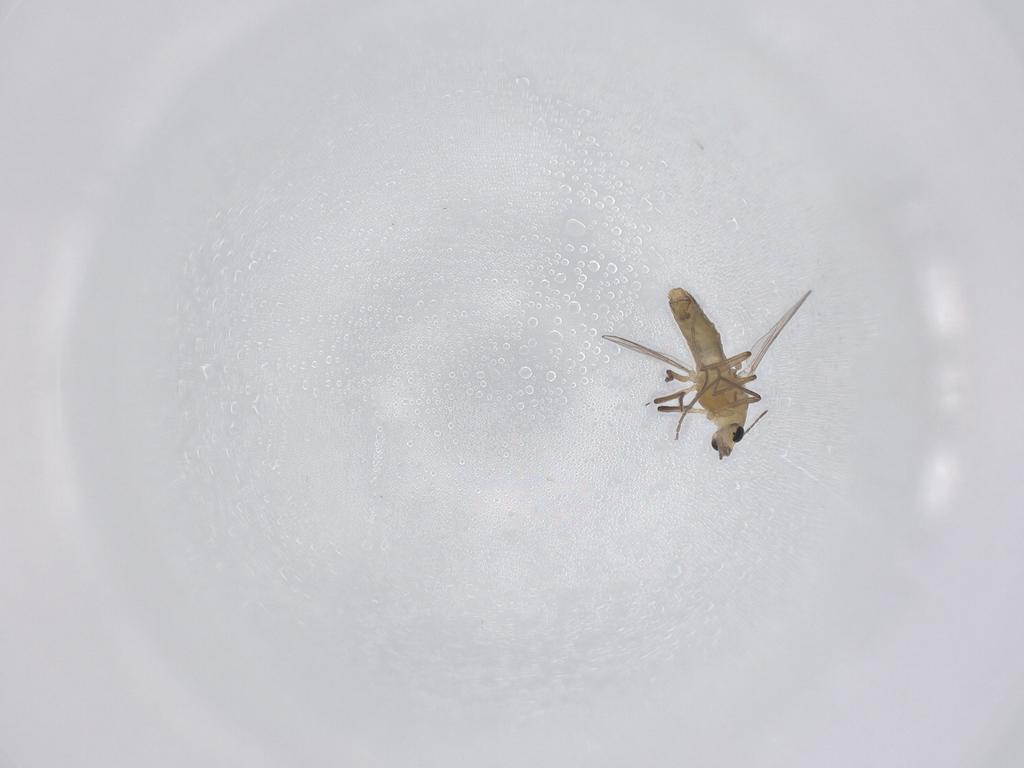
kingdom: Animalia
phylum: Arthropoda
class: Insecta
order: Diptera
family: Chironomidae
